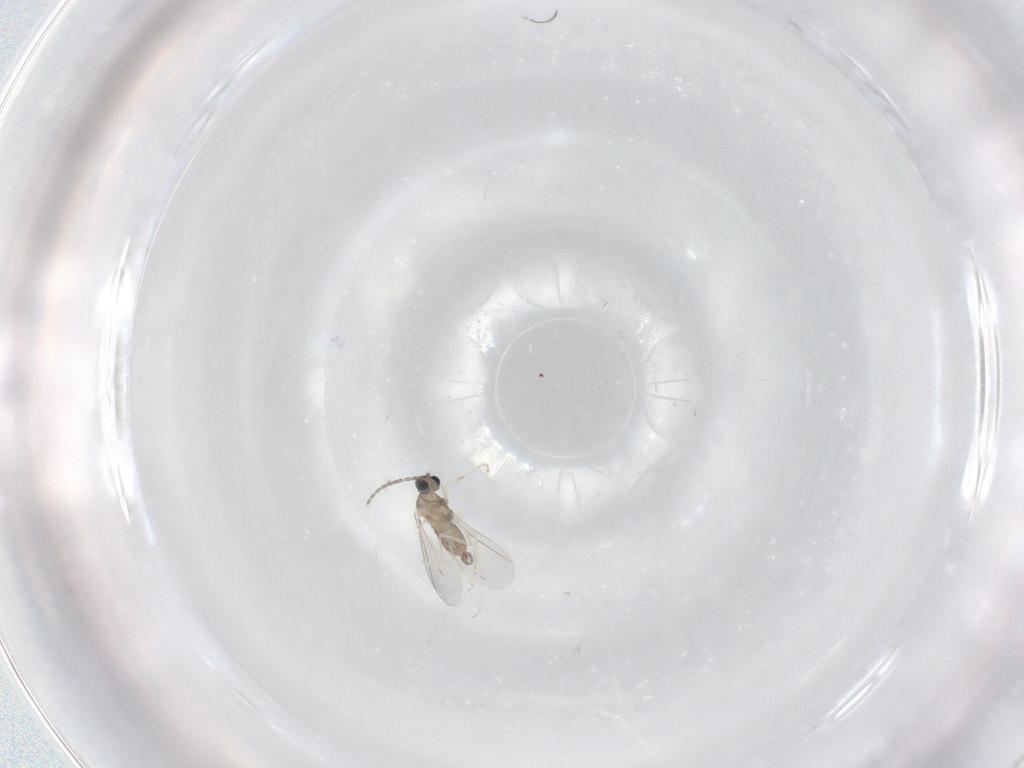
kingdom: Animalia
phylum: Arthropoda
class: Insecta
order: Diptera
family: Cecidomyiidae
